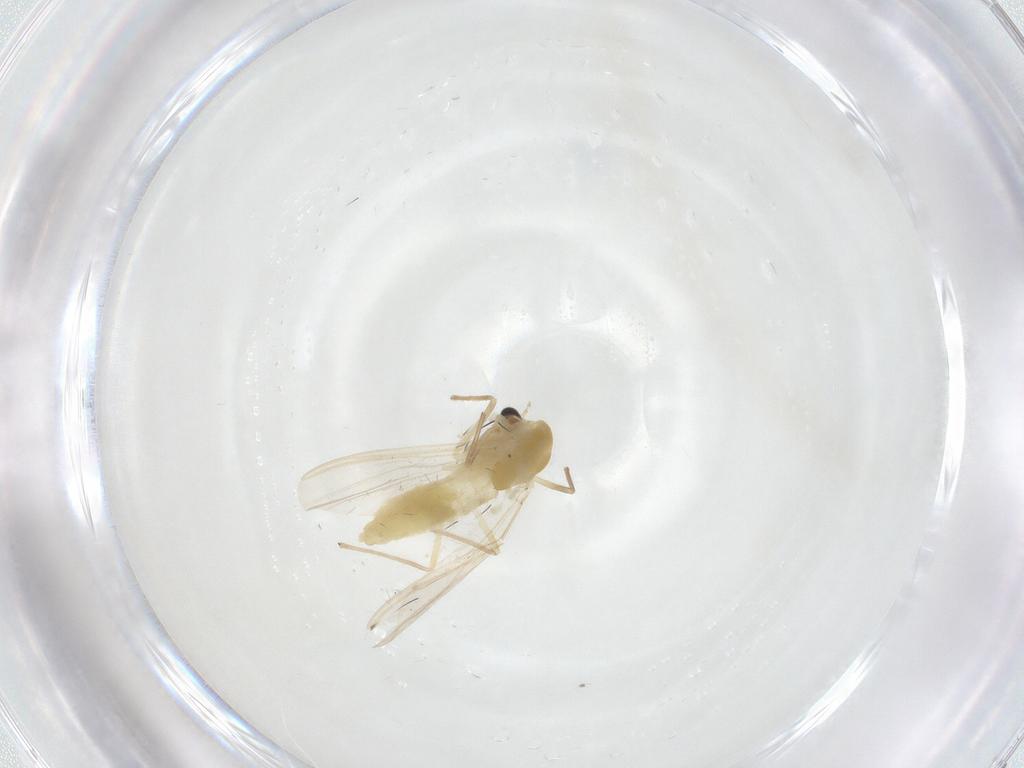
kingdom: Animalia
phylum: Arthropoda
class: Insecta
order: Diptera
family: Chironomidae
